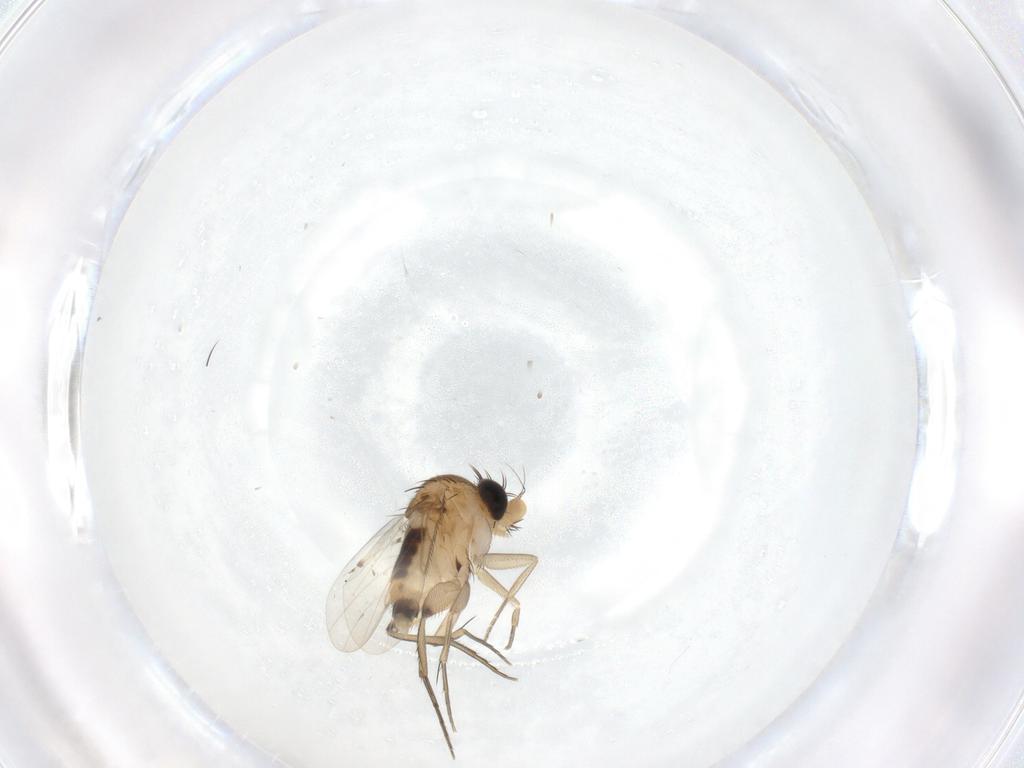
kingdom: Animalia
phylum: Arthropoda
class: Insecta
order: Diptera
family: Phoridae
